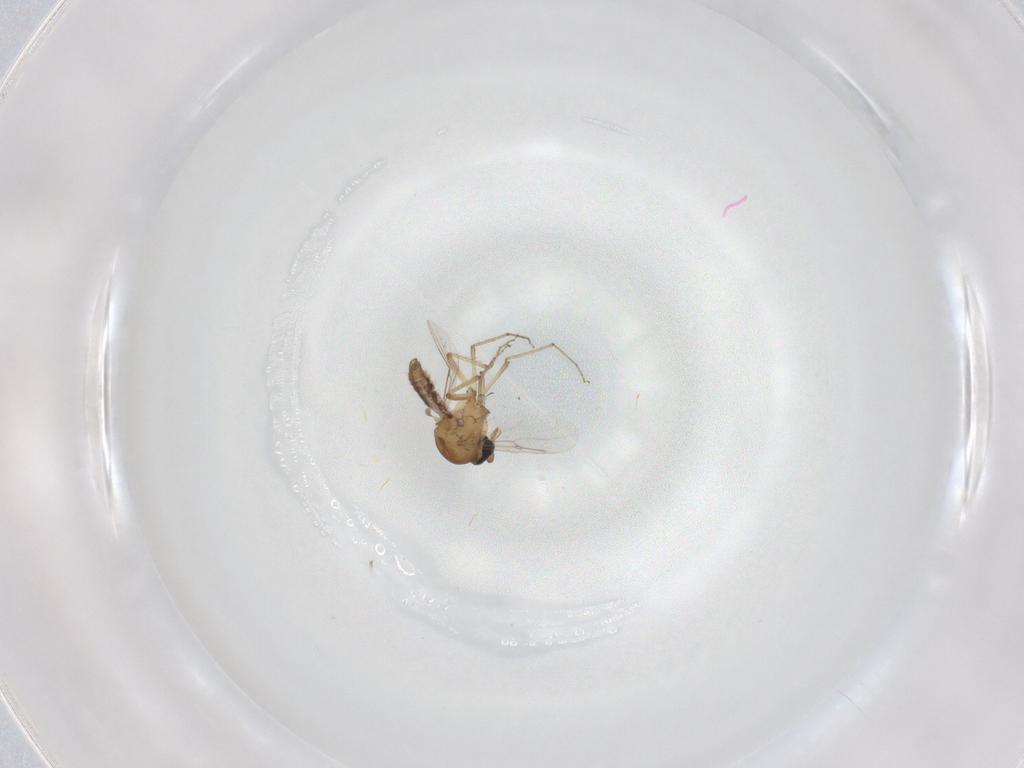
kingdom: Animalia
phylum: Arthropoda
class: Insecta
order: Diptera
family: Ceratopogonidae
